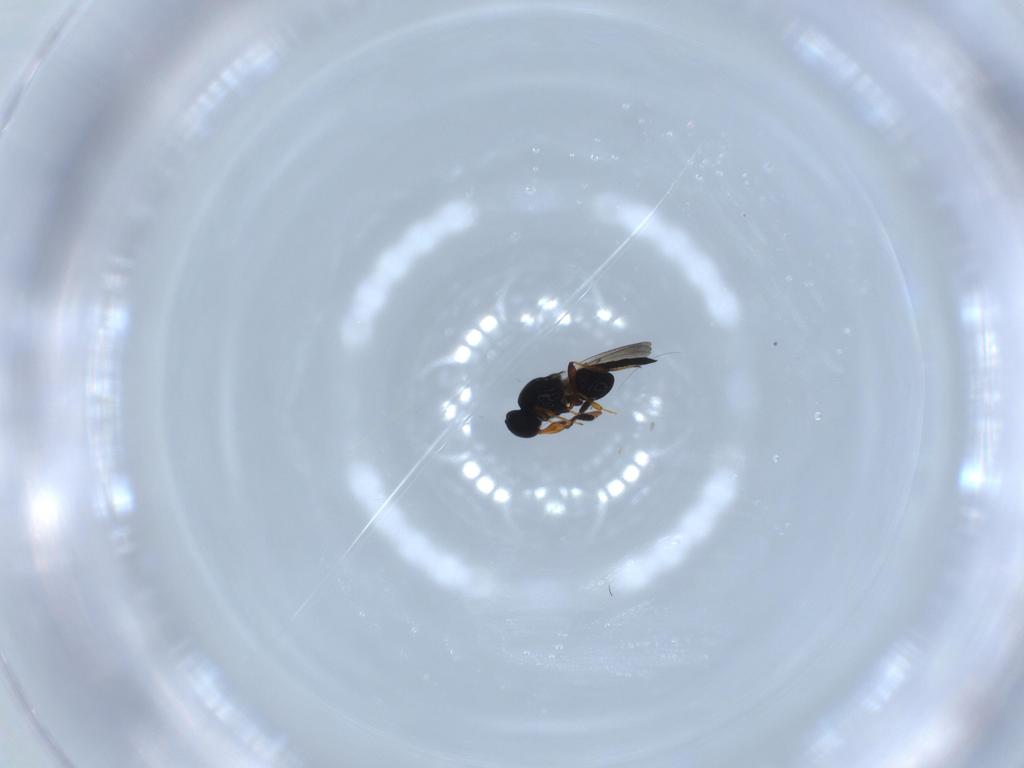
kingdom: Animalia
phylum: Arthropoda
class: Insecta
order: Hymenoptera
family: Platygastridae
